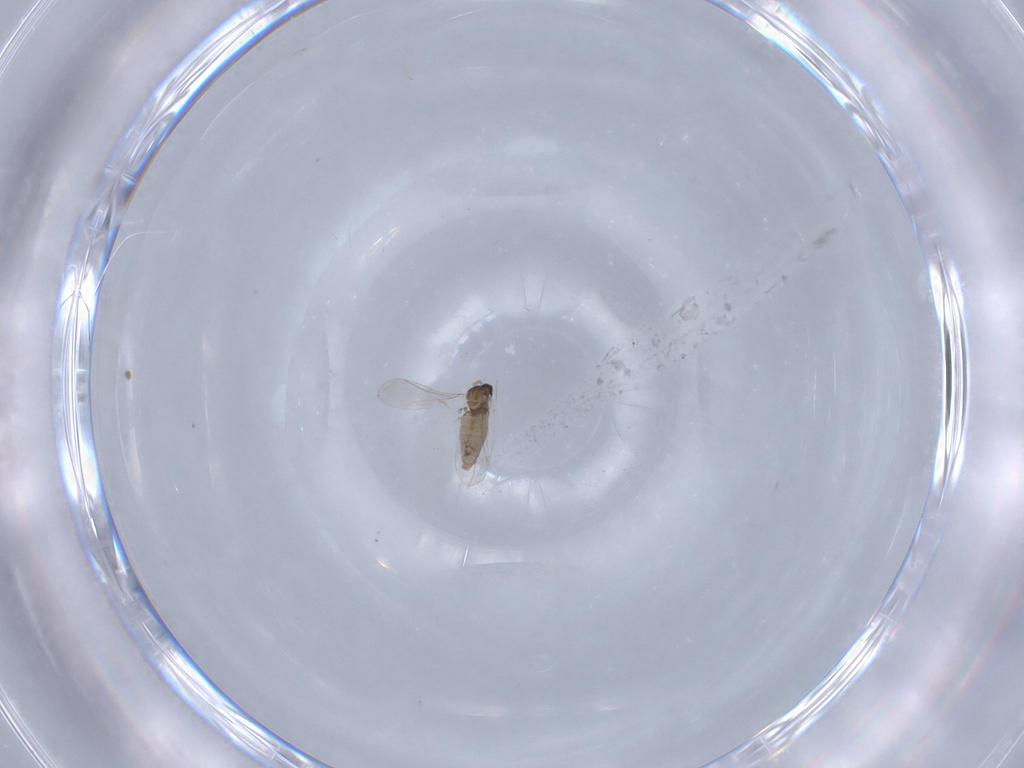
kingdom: Animalia
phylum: Arthropoda
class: Insecta
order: Diptera
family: Cecidomyiidae
